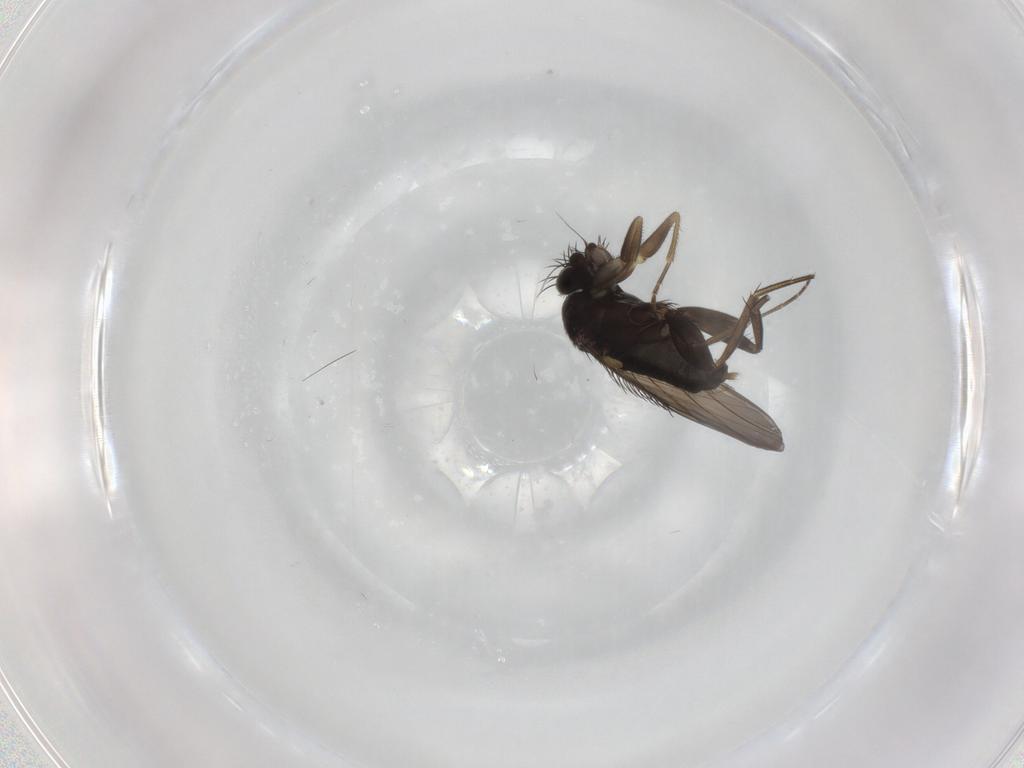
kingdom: Animalia
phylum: Arthropoda
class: Insecta
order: Diptera
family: Phoridae
